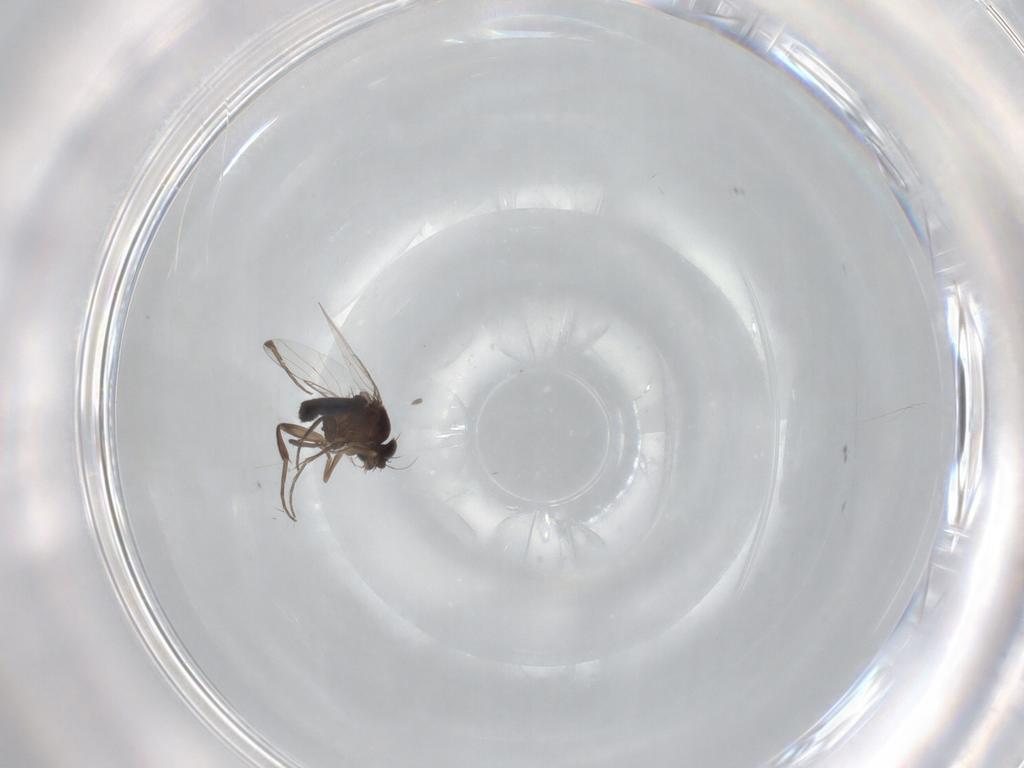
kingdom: Animalia
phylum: Arthropoda
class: Insecta
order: Diptera
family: Phoridae
